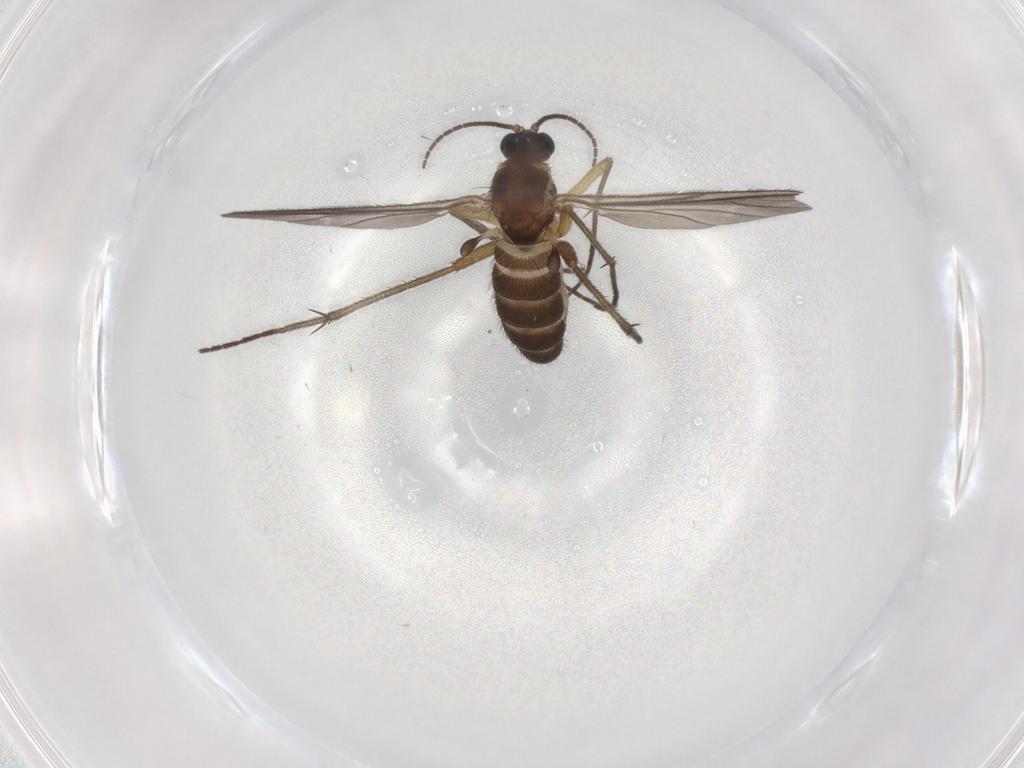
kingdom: Animalia
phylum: Arthropoda
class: Insecta
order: Diptera
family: Sciaridae
